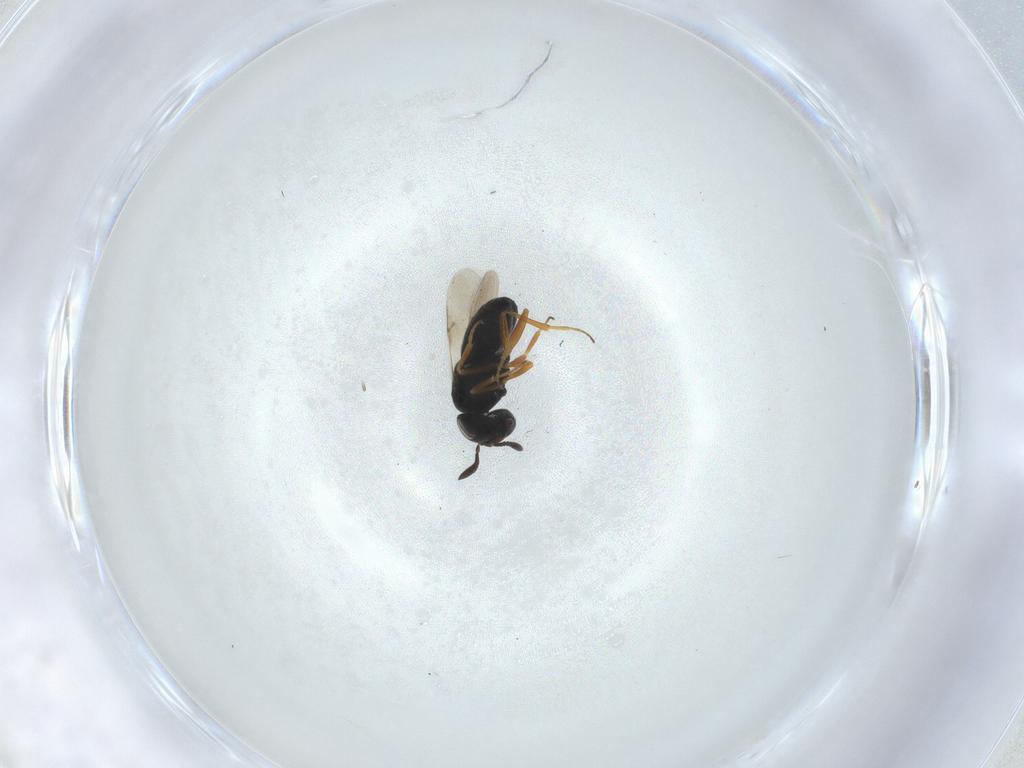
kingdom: Animalia
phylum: Arthropoda
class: Insecta
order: Hymenoptera
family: Scelionidae
